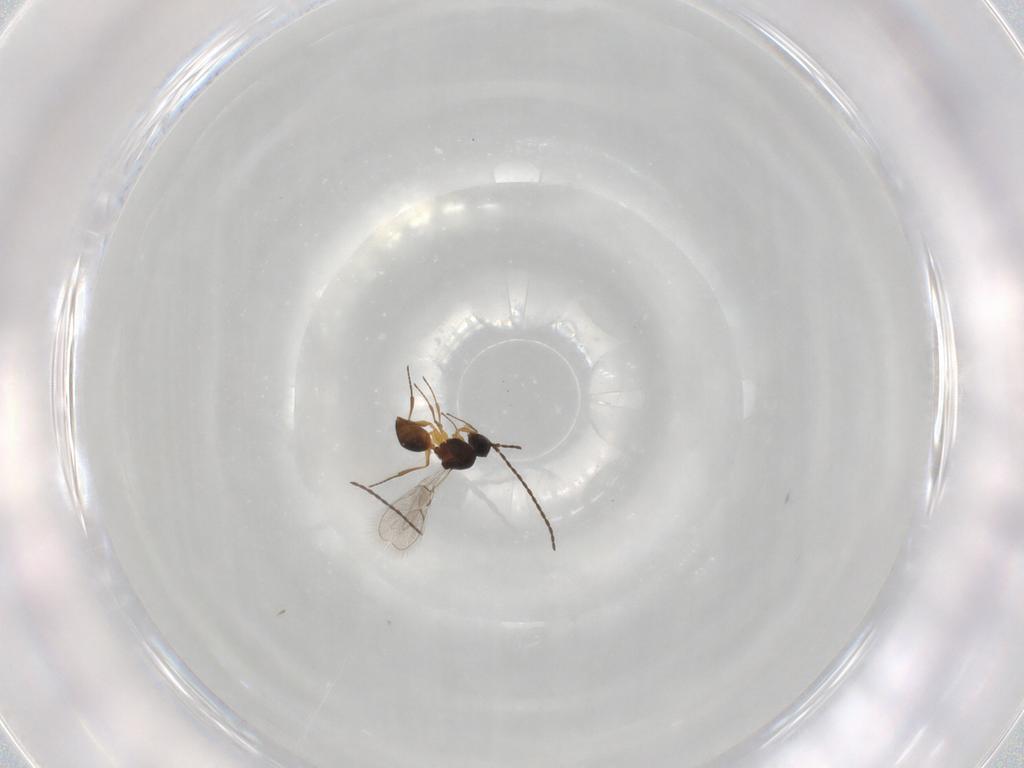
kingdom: Animalia
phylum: Arthropoda
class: Insecta
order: Hymenoptera
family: Figitidae
